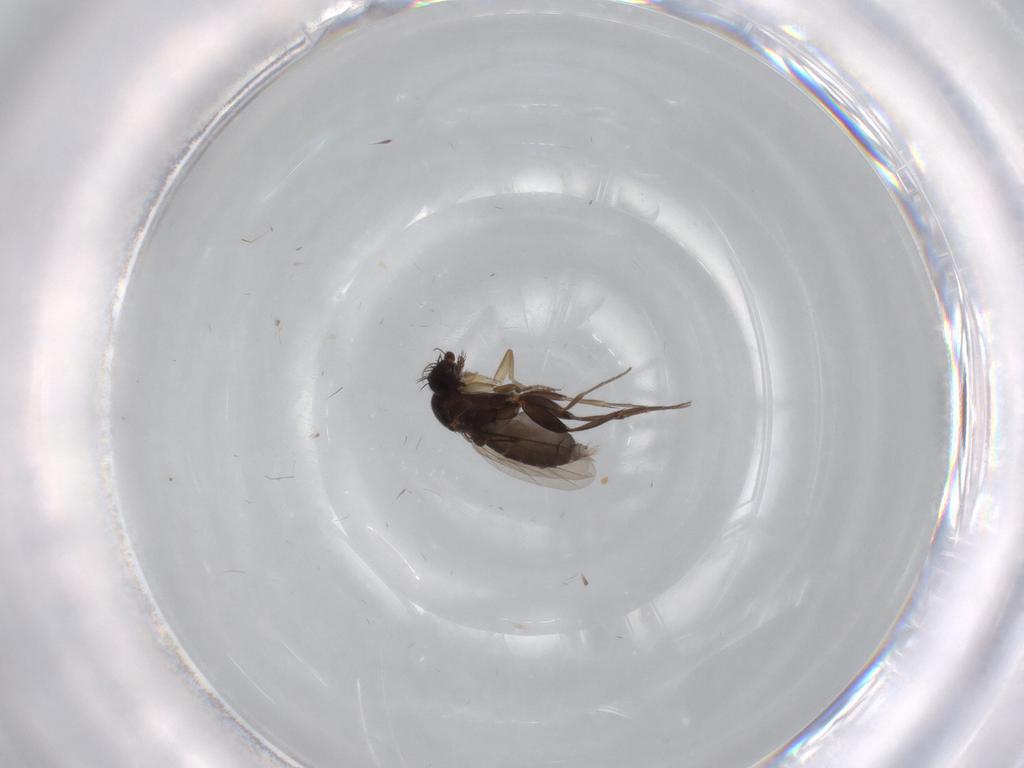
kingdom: Animalia
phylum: Arthropoda
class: Insecta
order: Diptera
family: Phoridae
